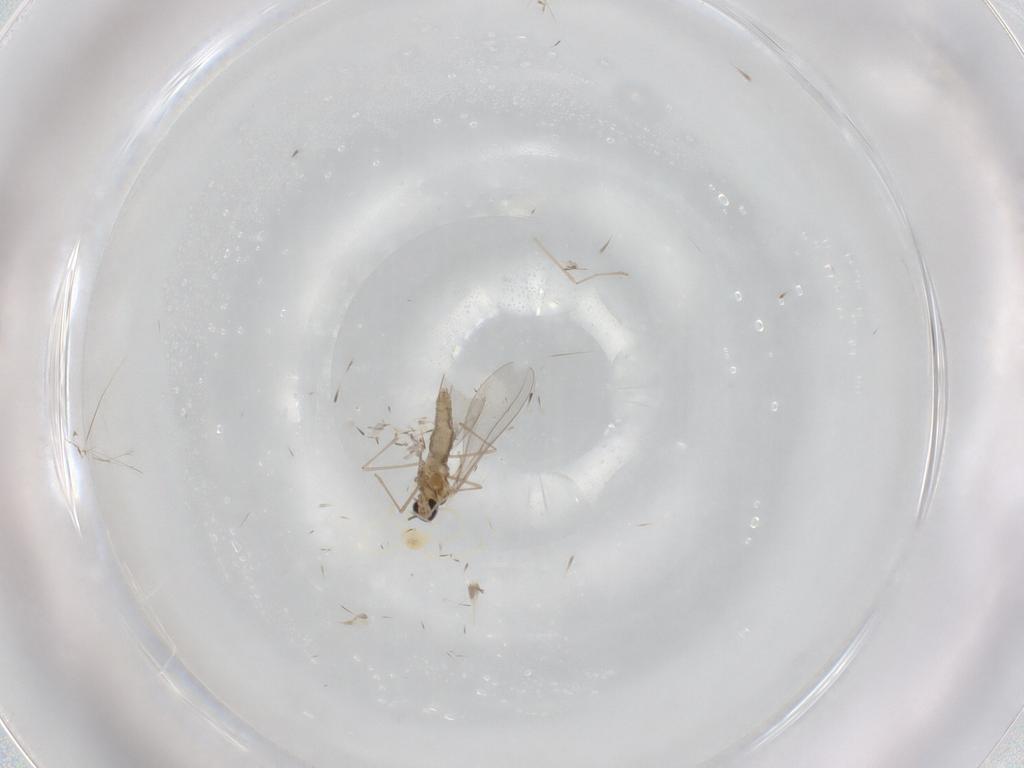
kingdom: Animalia
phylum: Arthropoda
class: Insecta
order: Diptera
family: Cecidomyiidae
